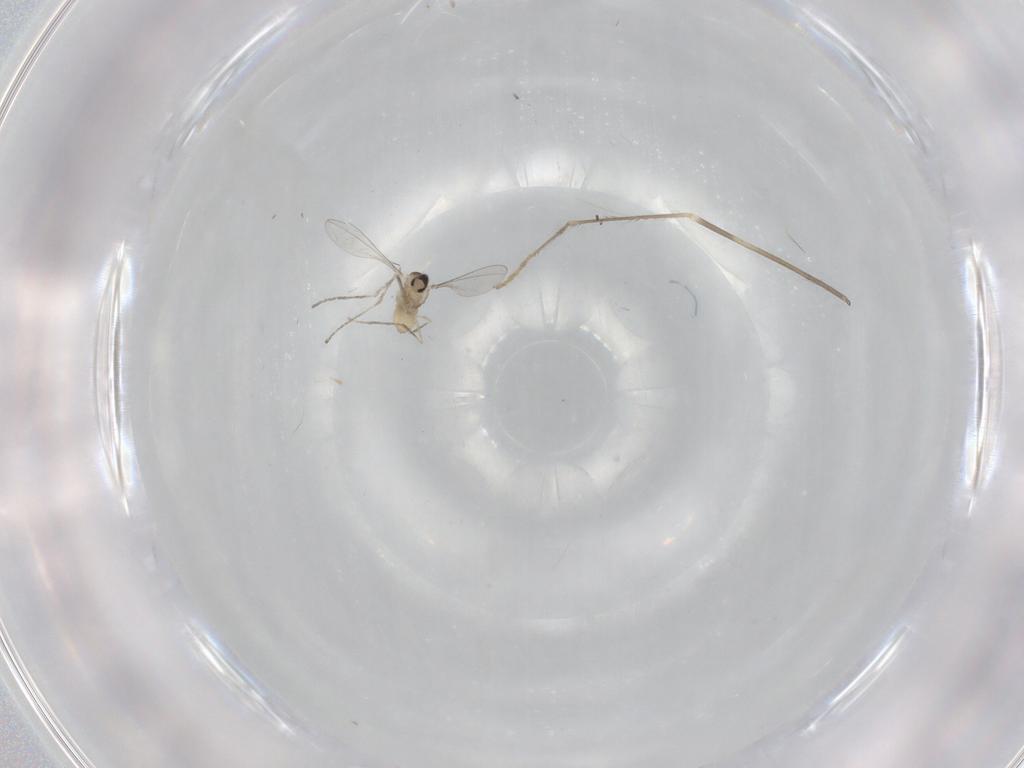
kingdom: Animalia
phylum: Arthropoda
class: Insecta
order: Diptera
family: Cecidomyiidae
